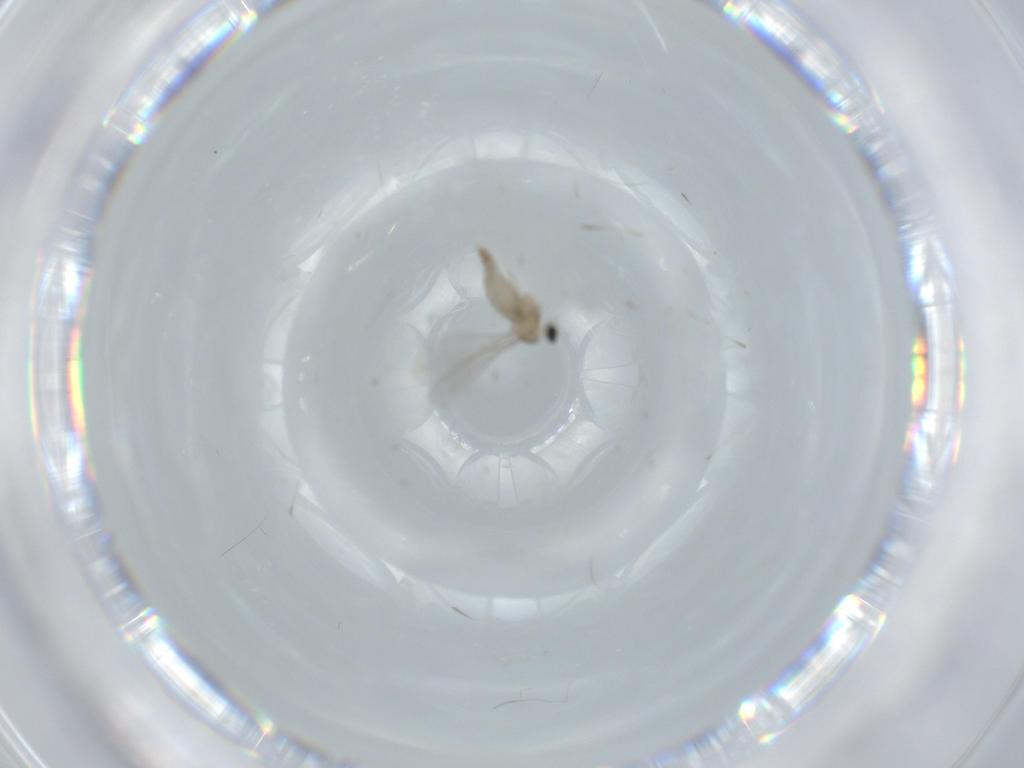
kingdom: Animalia
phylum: Arthropoda
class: Insecta
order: Diptera
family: Cecidomyiidae
